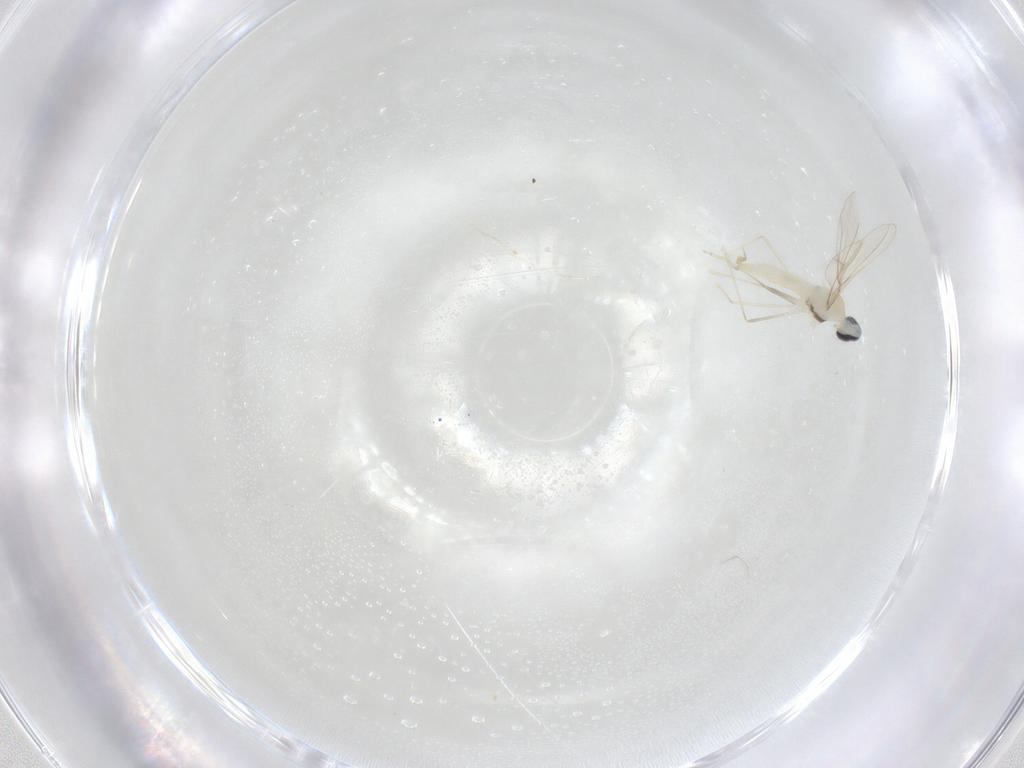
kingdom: Animalia
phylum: Arthropoda
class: Insecta
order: Diptera
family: Cecidomyiidae
